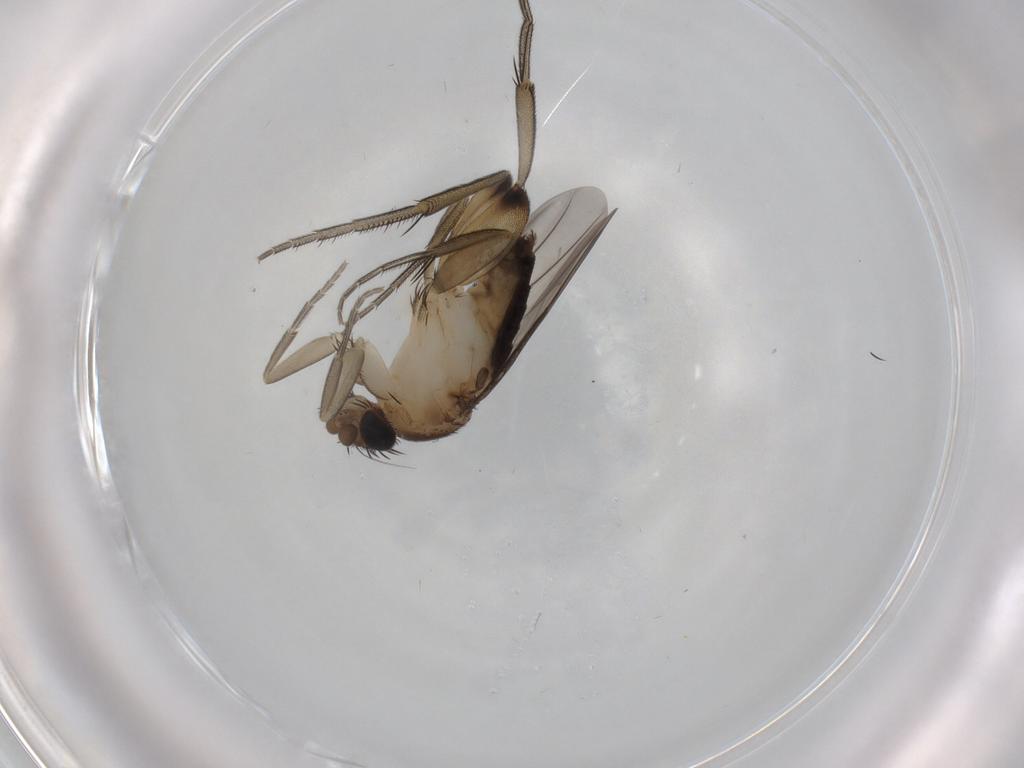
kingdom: Animalia
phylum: Arthropoda
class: Insecta
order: Diptera
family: Phoridae
